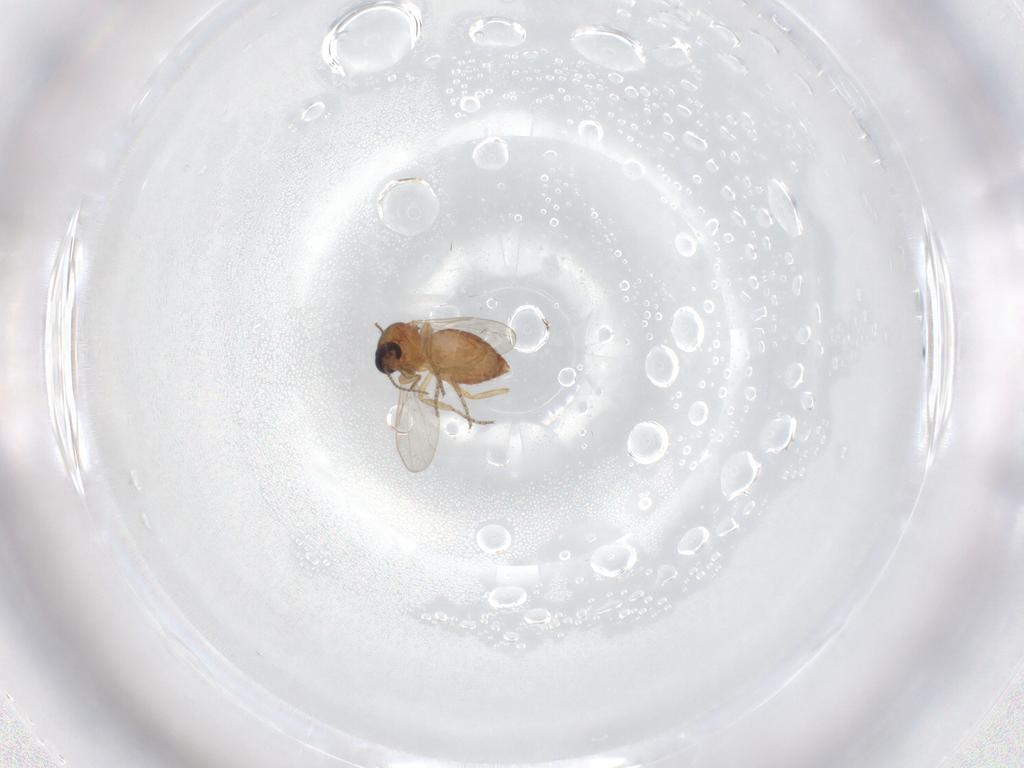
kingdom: Animalia
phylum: Arthropoda
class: Insecta
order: Diptera
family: Ceratopogonidae
